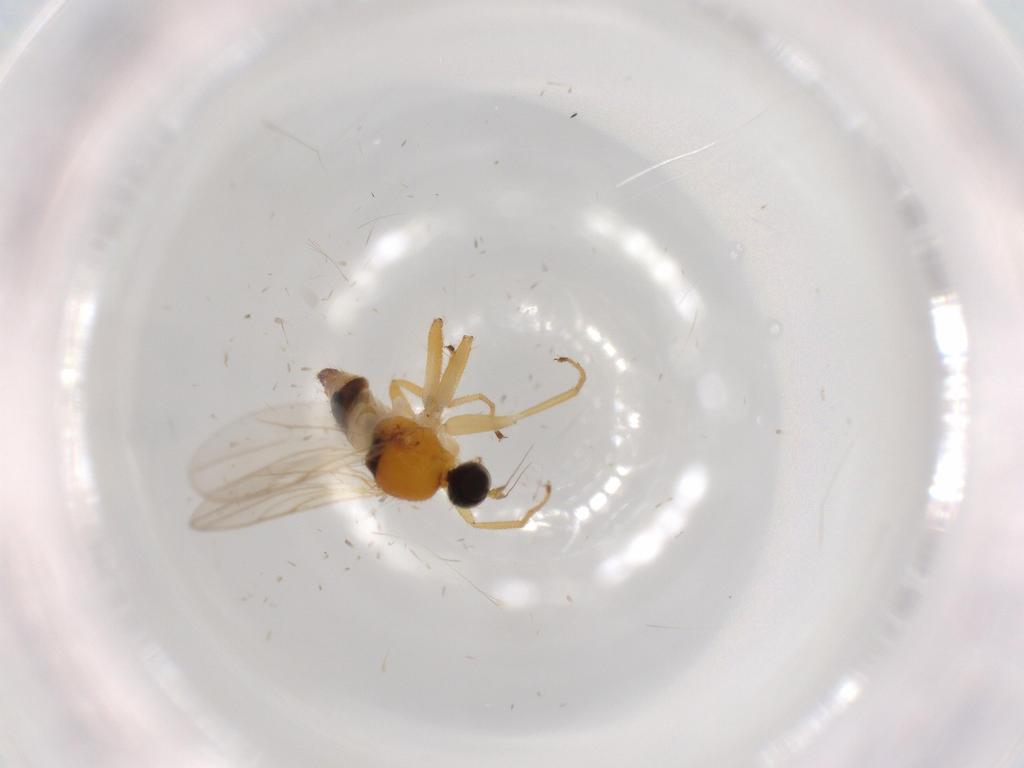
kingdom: Animalia
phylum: Arthropoda
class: Insecta
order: Diptera
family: Hybotidae
